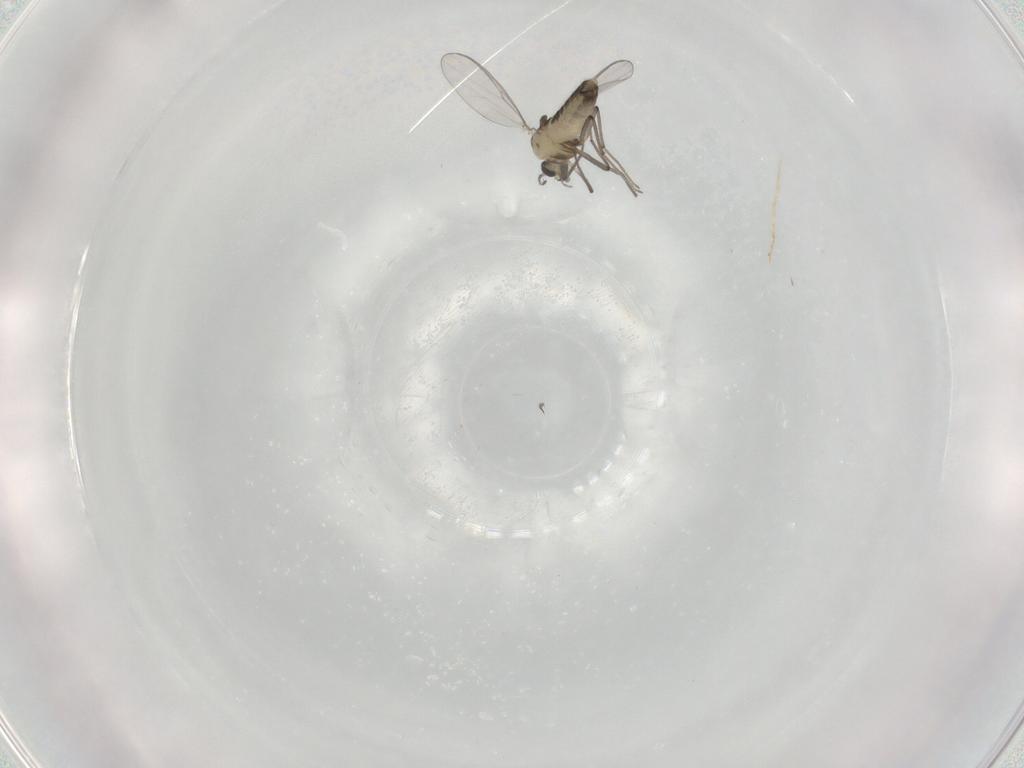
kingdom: Animalia
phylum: Arthropoda
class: Insecta
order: Diptera
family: Chironomidae
